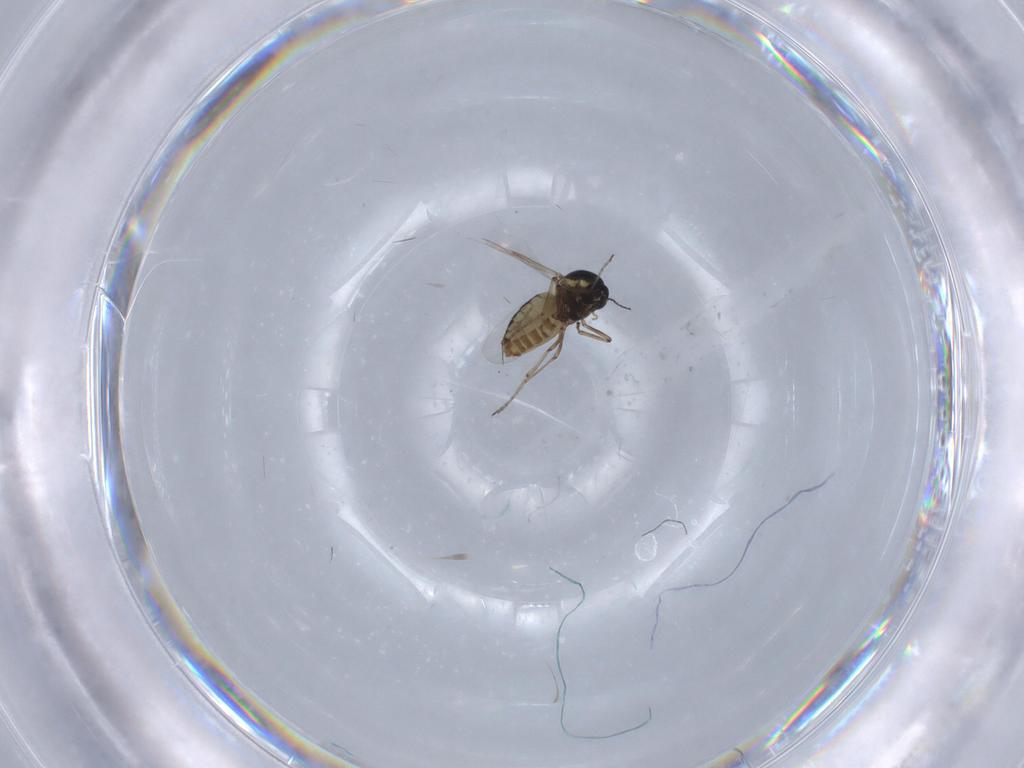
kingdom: Animalia
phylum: Arthropoda
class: Insecta
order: Diptera
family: Ceratopogonidae
